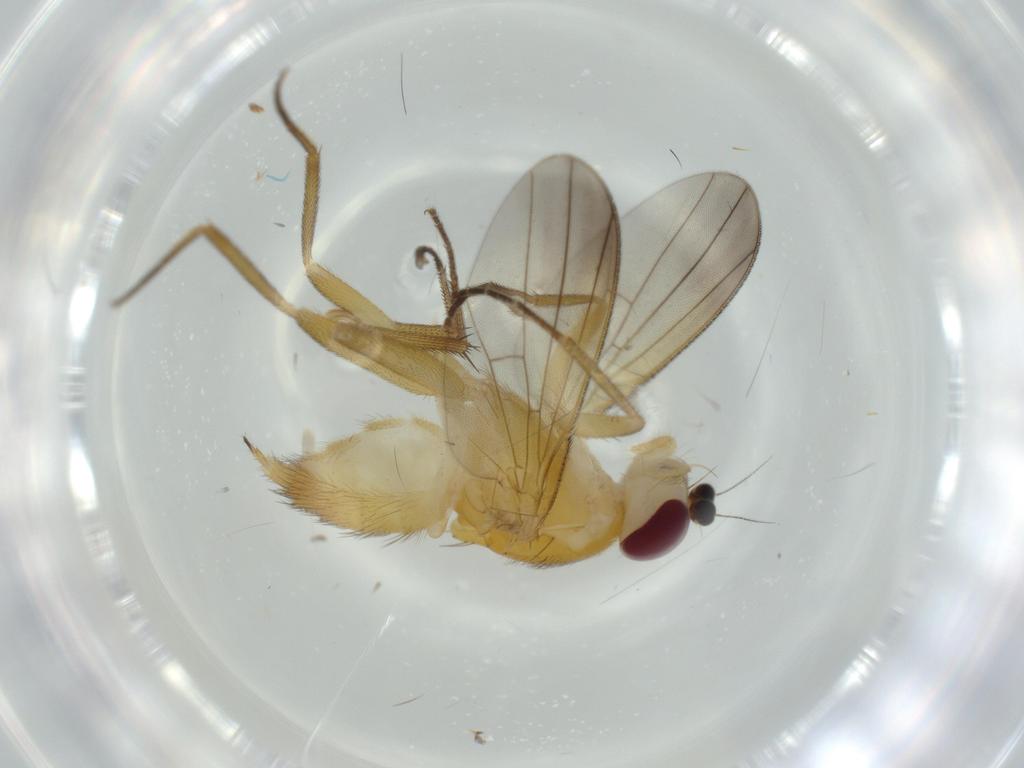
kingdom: Animalia
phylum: Arthropoda
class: Insecta
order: Diptera
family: Clusiidae
